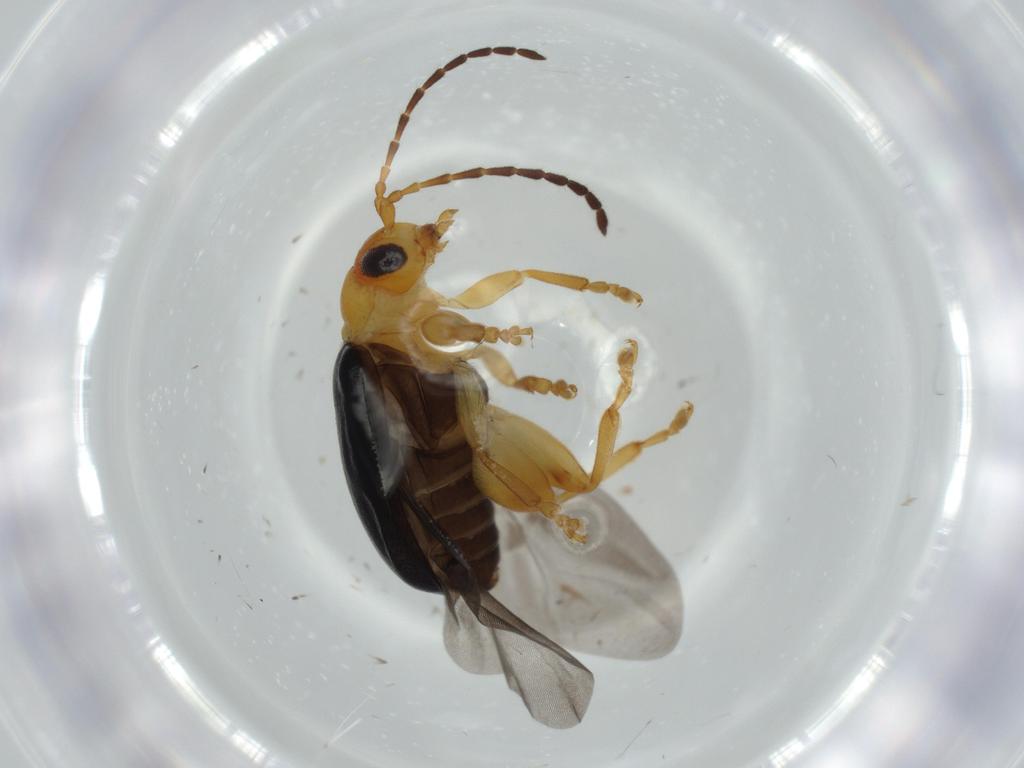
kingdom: Animalia
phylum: Arthropoda
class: Insecta
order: Coleoptera
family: Chrysomelidae
